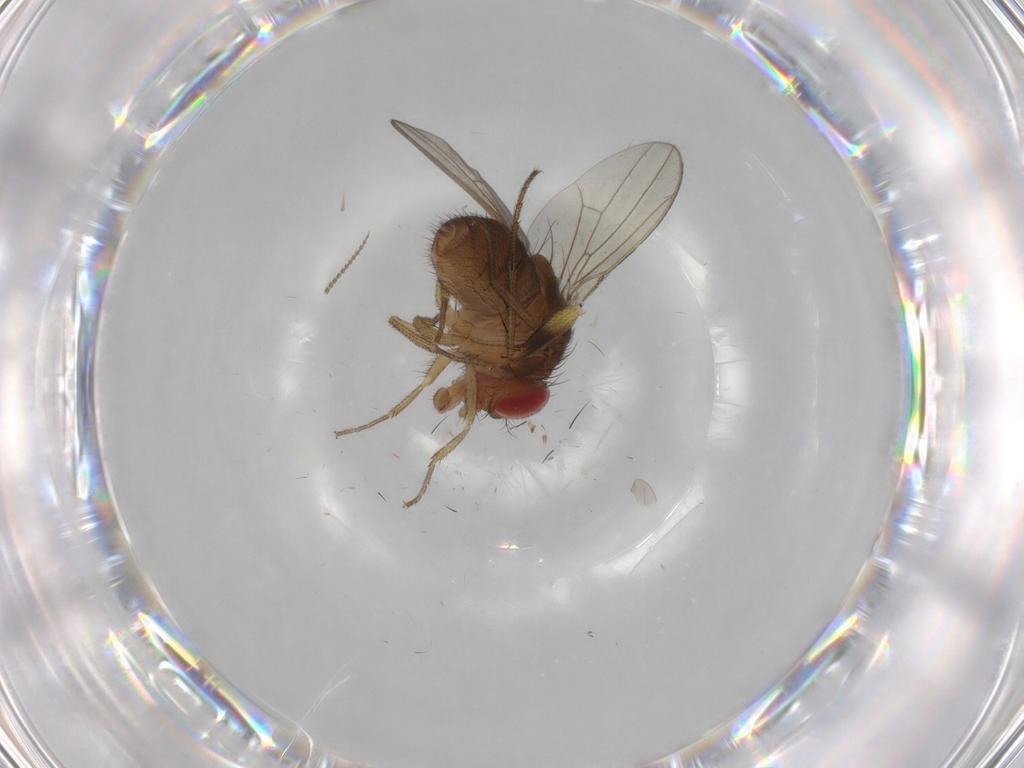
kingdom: Animalia
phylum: Arthropoda
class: Insecta
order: Diptera
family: Drosophilidae
